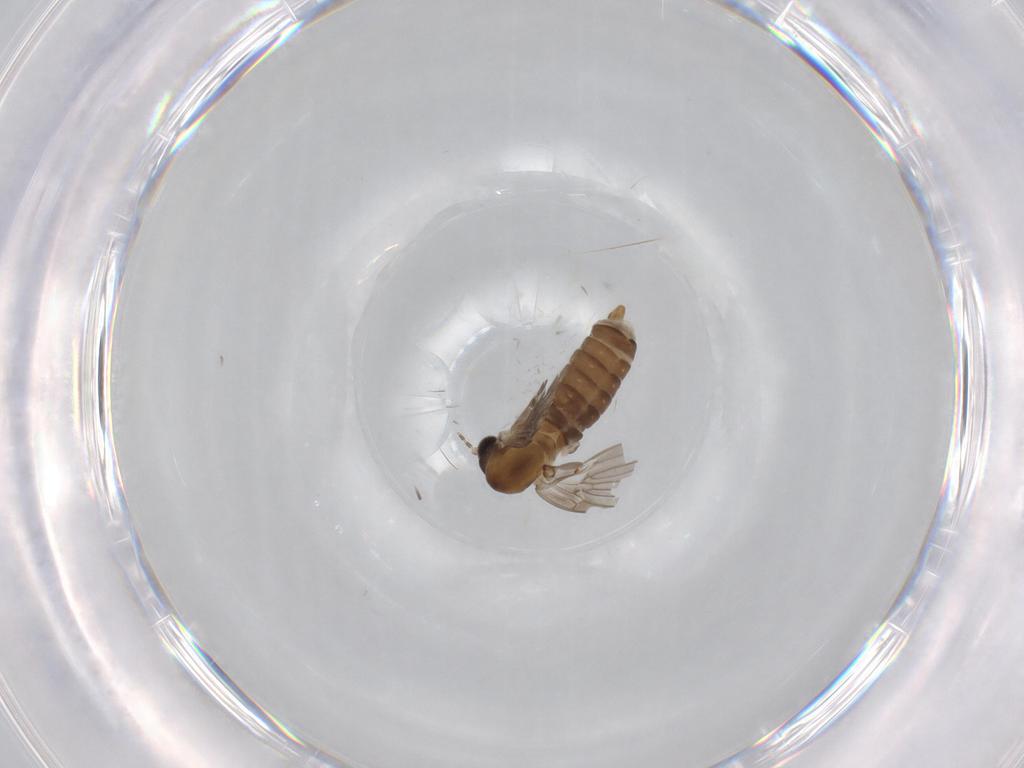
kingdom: Animalia
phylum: Arthropoda
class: Insecta
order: Diptera
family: Psychodidae
